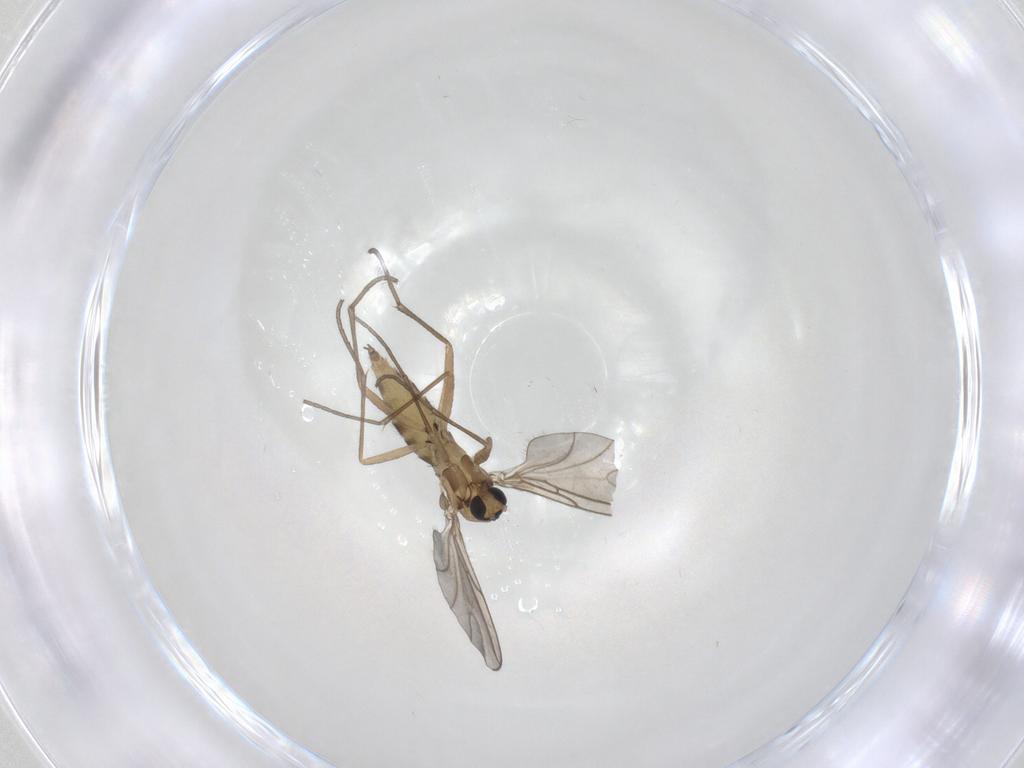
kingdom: Animalia
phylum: Arthropoda
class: Insecta
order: Diptera
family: Sciaridae
